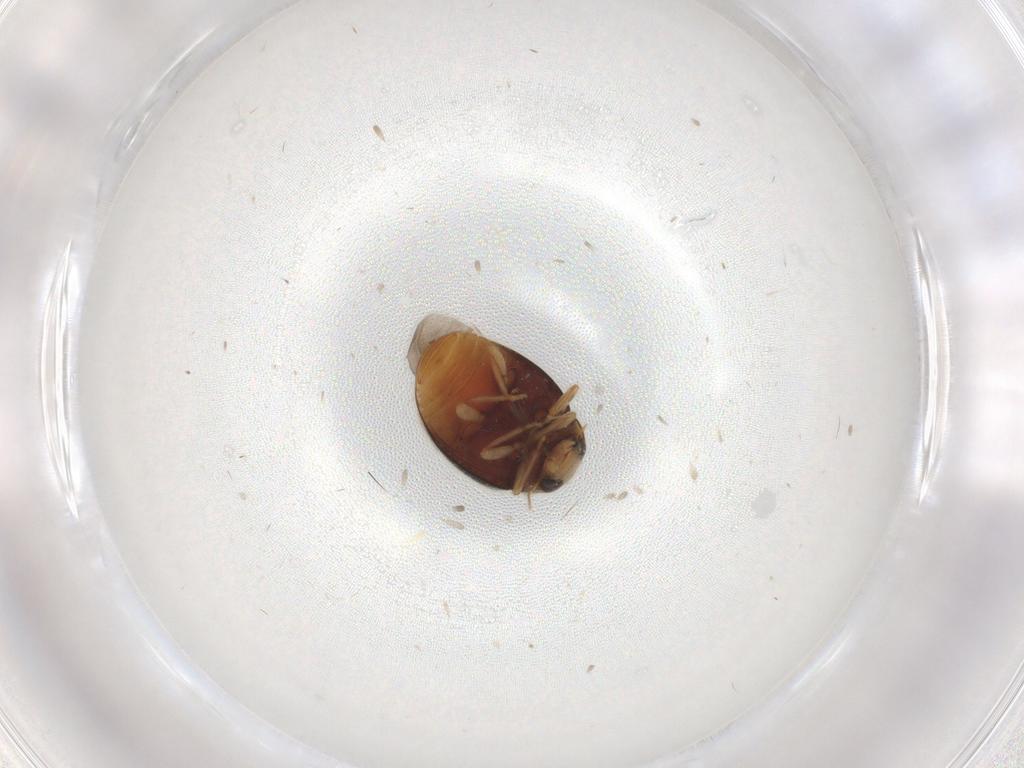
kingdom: Animalia
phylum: Arthropoda
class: Insecta
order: Coleoptera
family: Coccinellidae
